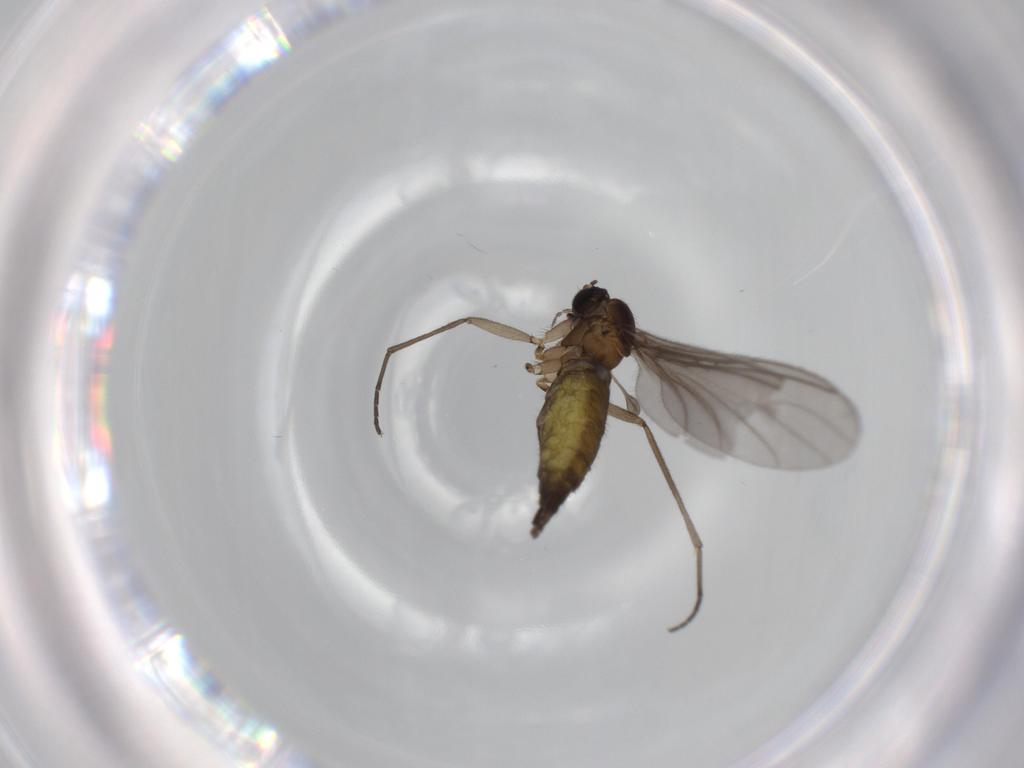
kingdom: Animalia
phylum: Arthropoda
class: Insecta
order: Diptera
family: Sciaridae
